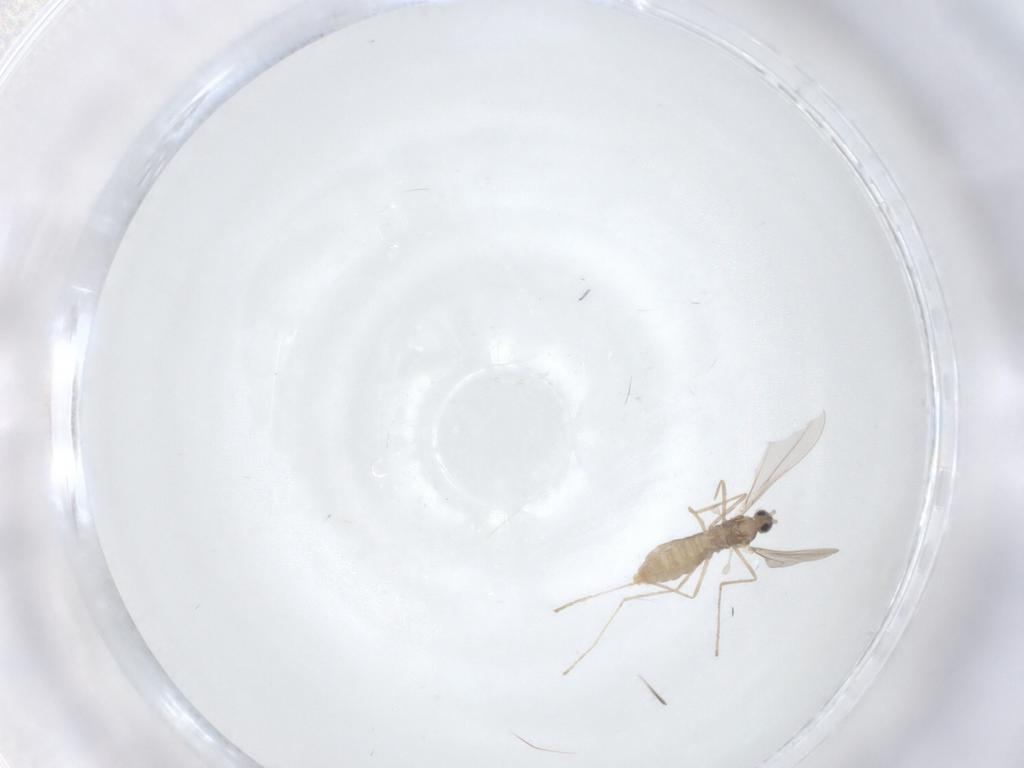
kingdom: Animalia
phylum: Arthropoda
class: Insecta
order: Diptera
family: Cecidomyiidae
